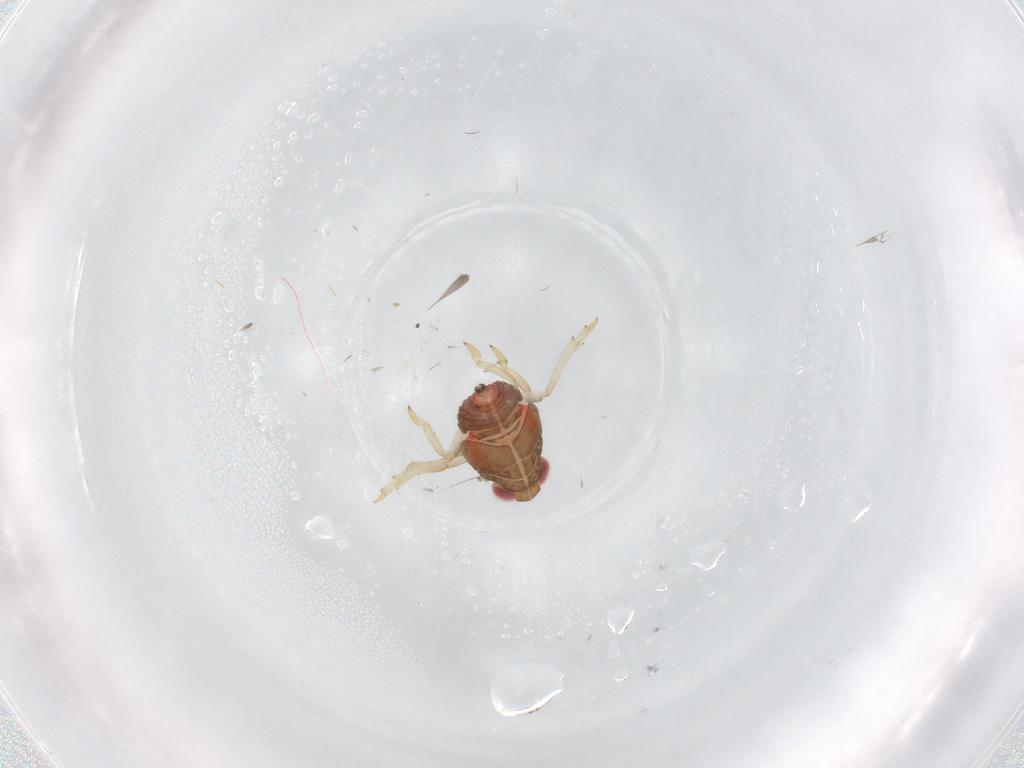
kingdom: Animalia
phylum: Arthropoda
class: Insecta
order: Hemiptera
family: Issidae
